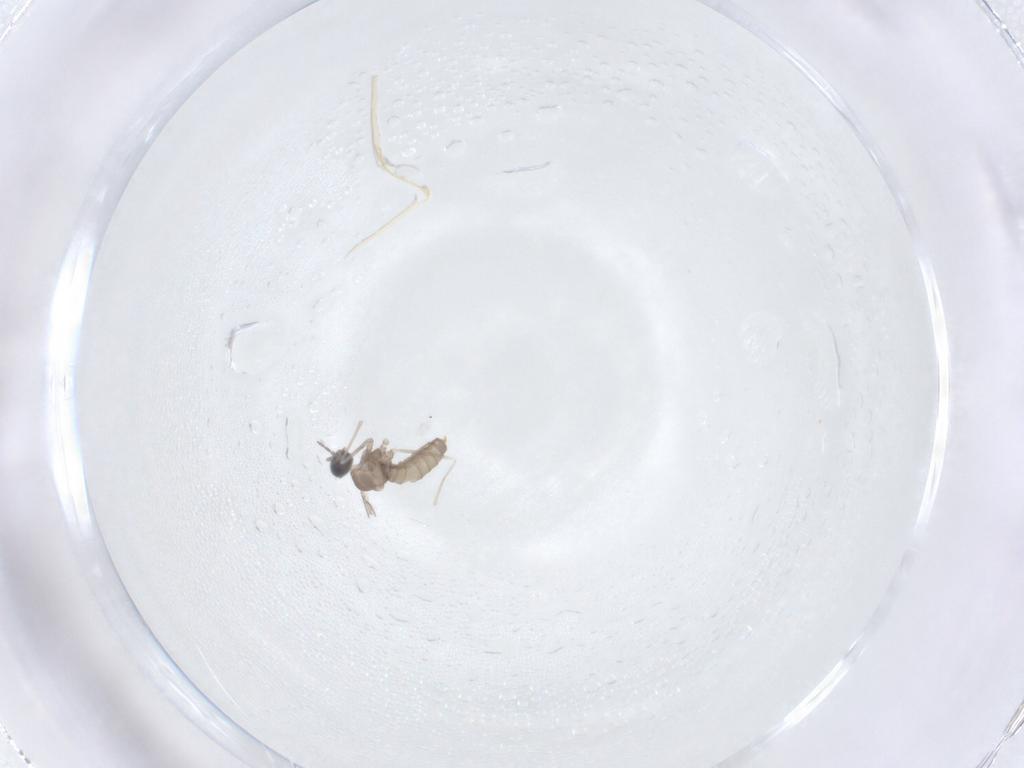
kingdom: Animalia
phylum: Arthropoda
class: Insecta
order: Diptera
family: Cecidomyiidae
